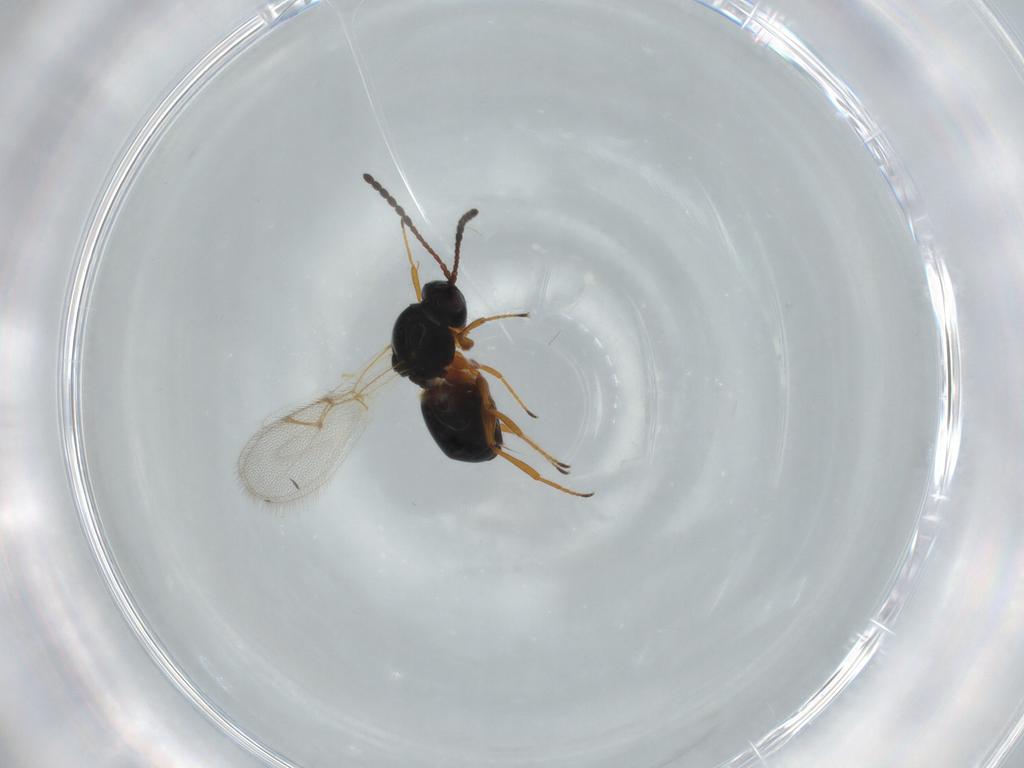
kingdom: Animalia
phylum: Arthropoda
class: Insecta
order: Hymenoptera
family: Figitidae
